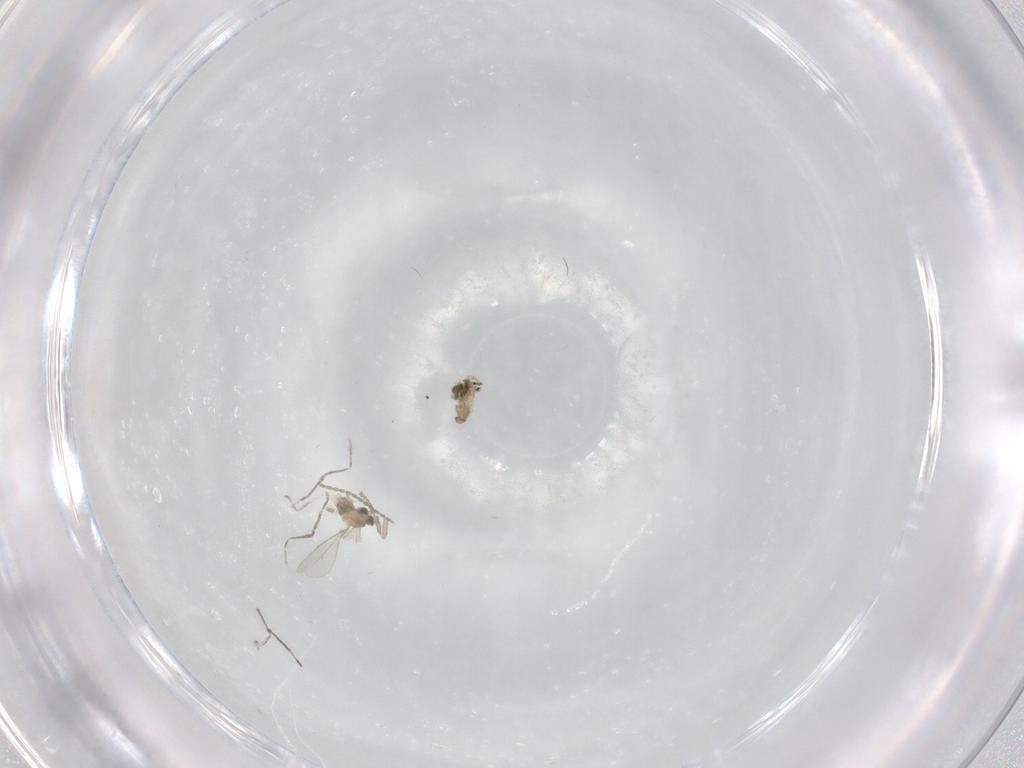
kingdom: Animalia
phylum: Arthropoda
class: Insecta
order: Diptera
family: Cecidomyiidae
